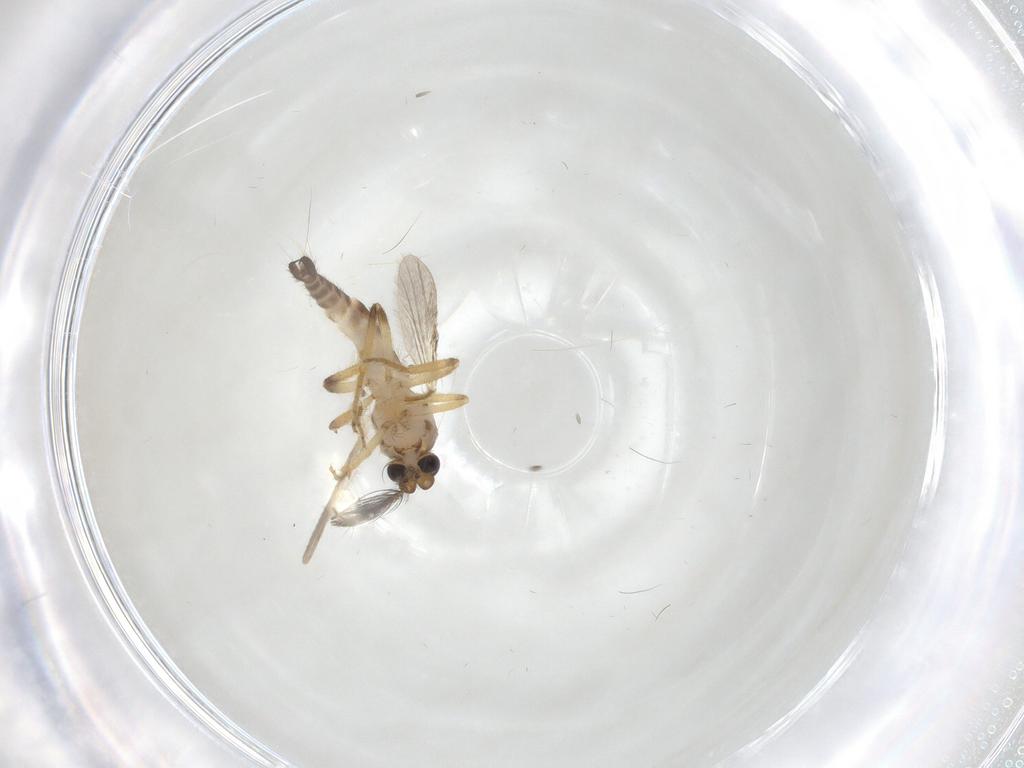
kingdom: Animalia
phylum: Arthropoda
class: Insecta
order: Diptera
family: Ceratopogonidae
